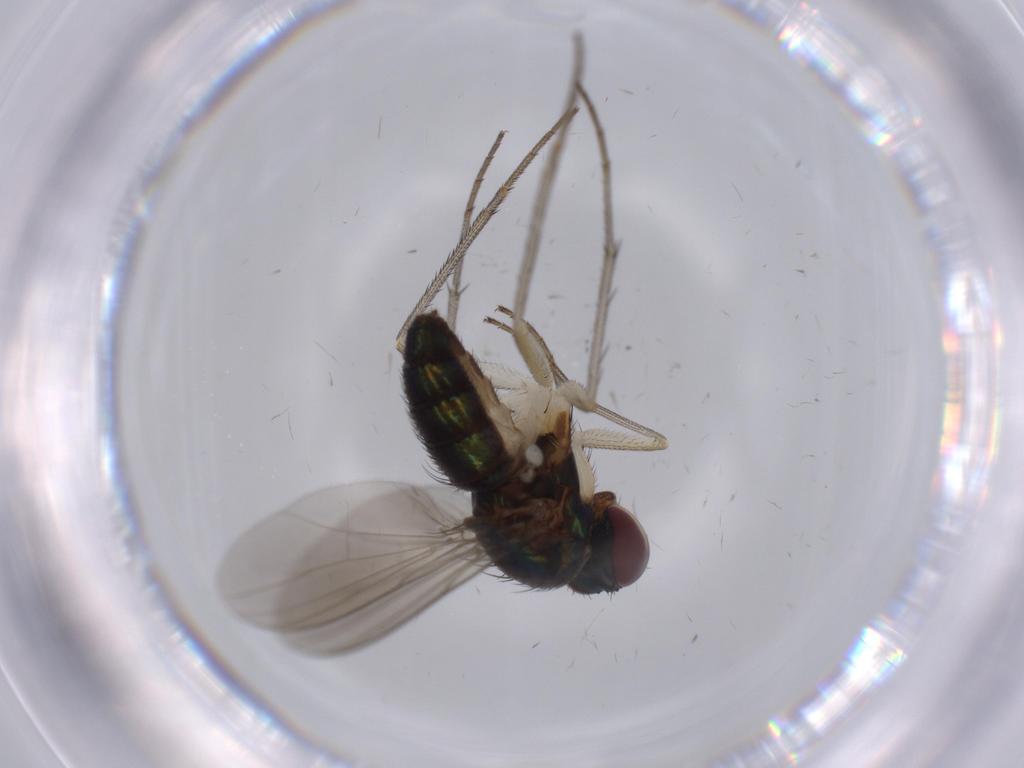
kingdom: Animalia
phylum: Arthropoda
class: Insecta
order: Diptera
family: Dolichopodidae
